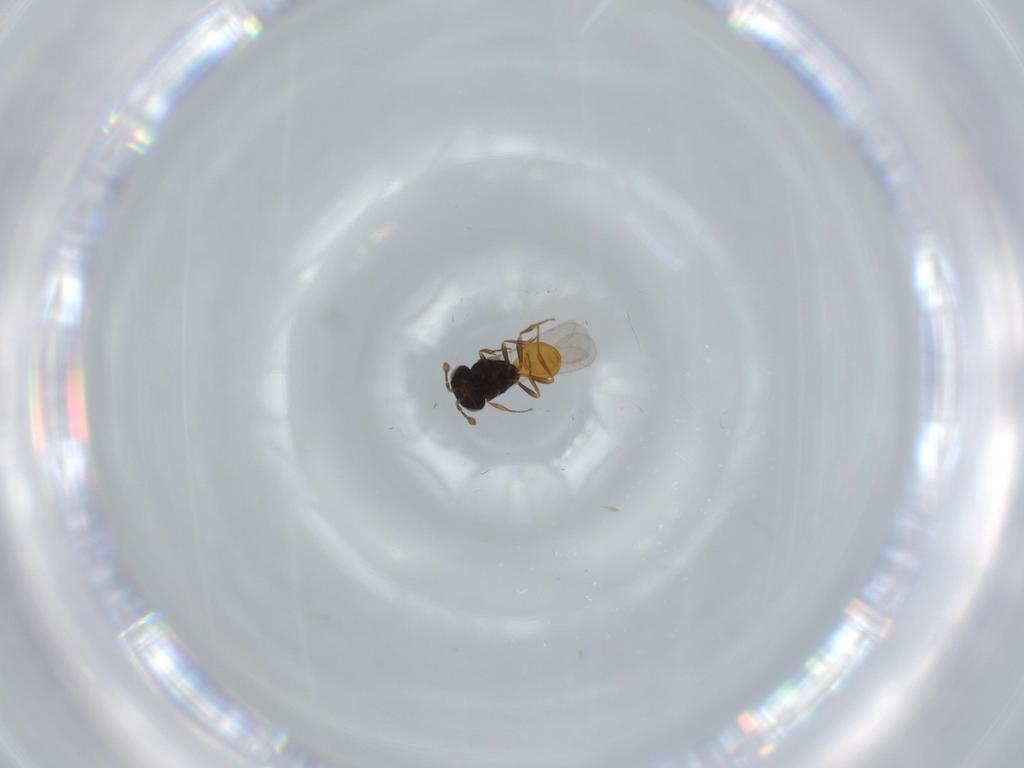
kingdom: Animalia
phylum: Arthropoda
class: Insecta
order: Hymenoptera
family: Scelionidae
